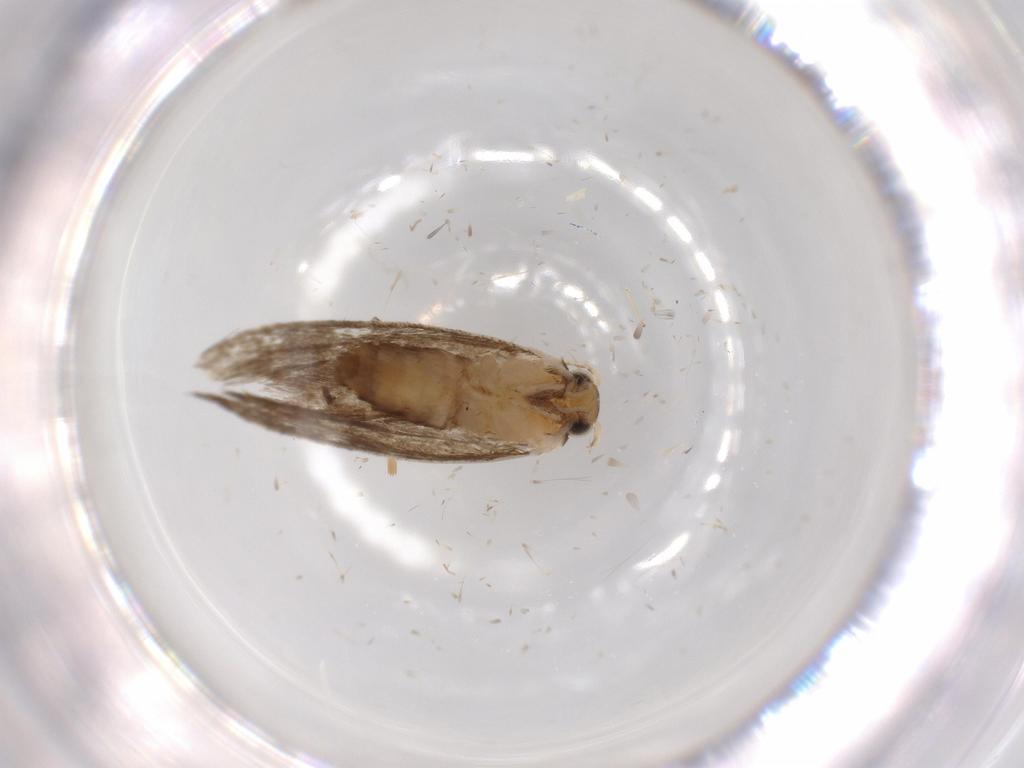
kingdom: Animalia
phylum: Arthropoda
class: Insecta
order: Lepidoptera
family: Tineidae
